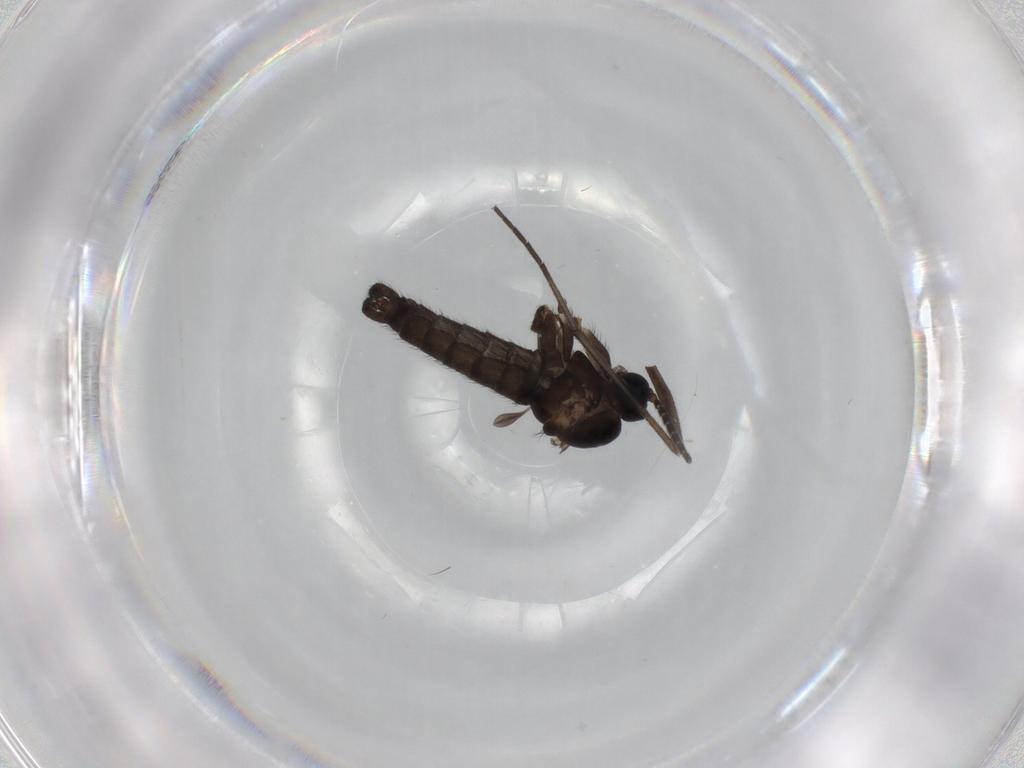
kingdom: Animalia
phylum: Arthropoda
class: Insecta
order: Diptera
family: Sciaridae
